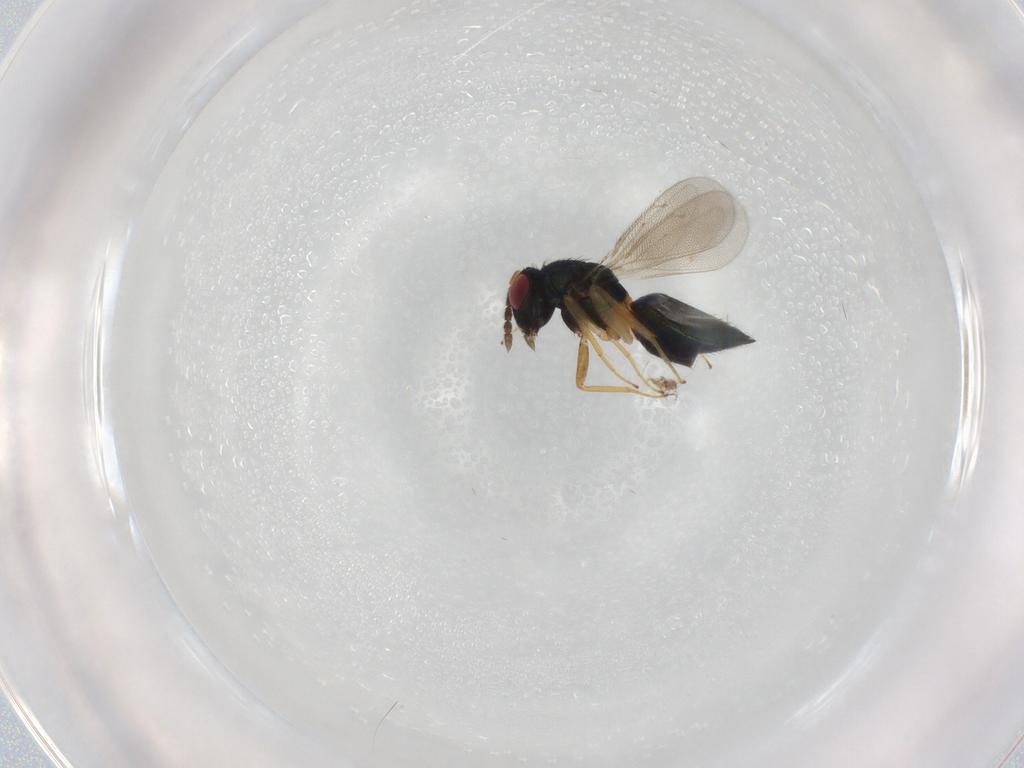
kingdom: Animalia
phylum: Arthropoda
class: Insecta
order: Hymenoptera
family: Eulophidae
